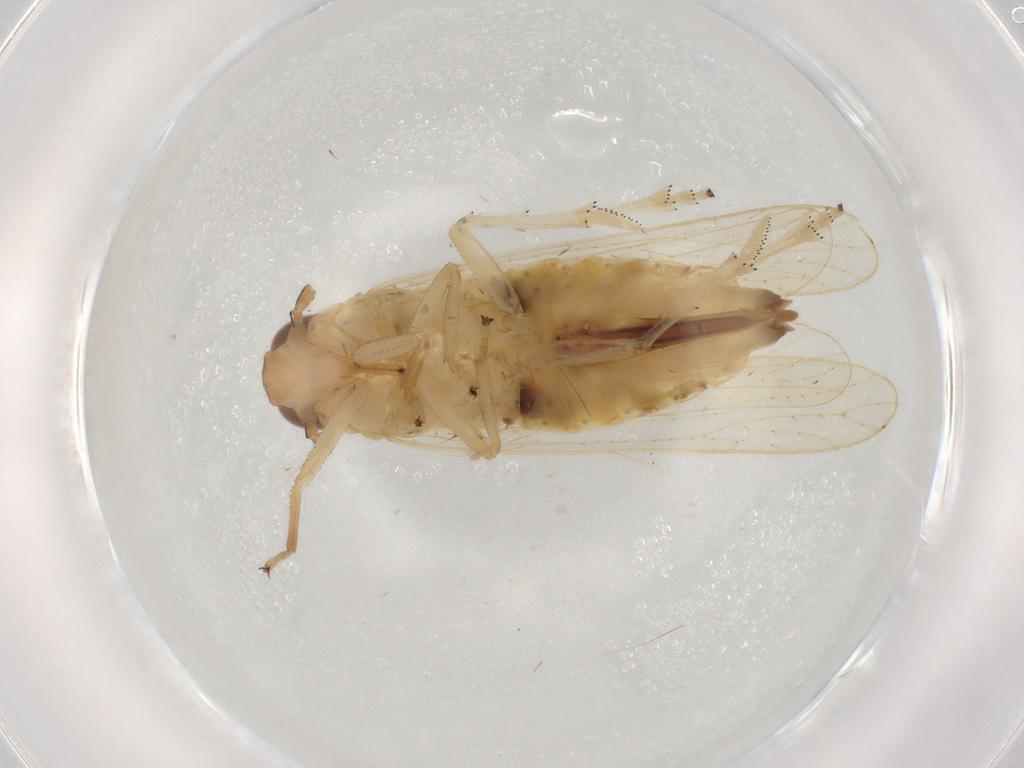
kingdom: Animalia
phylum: Arthropoda
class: Insecta
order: Hemiptera
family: Delphacidae
